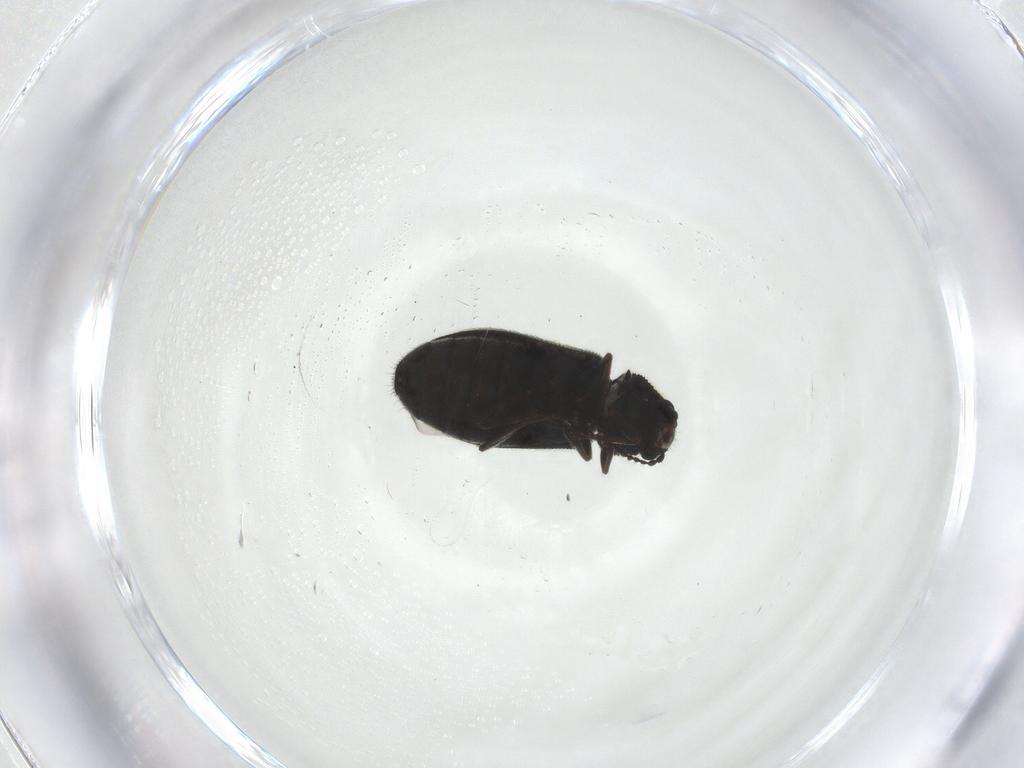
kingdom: Animalia
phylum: Arthropoda
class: Insecta
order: Coleoptera
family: Melyridae
